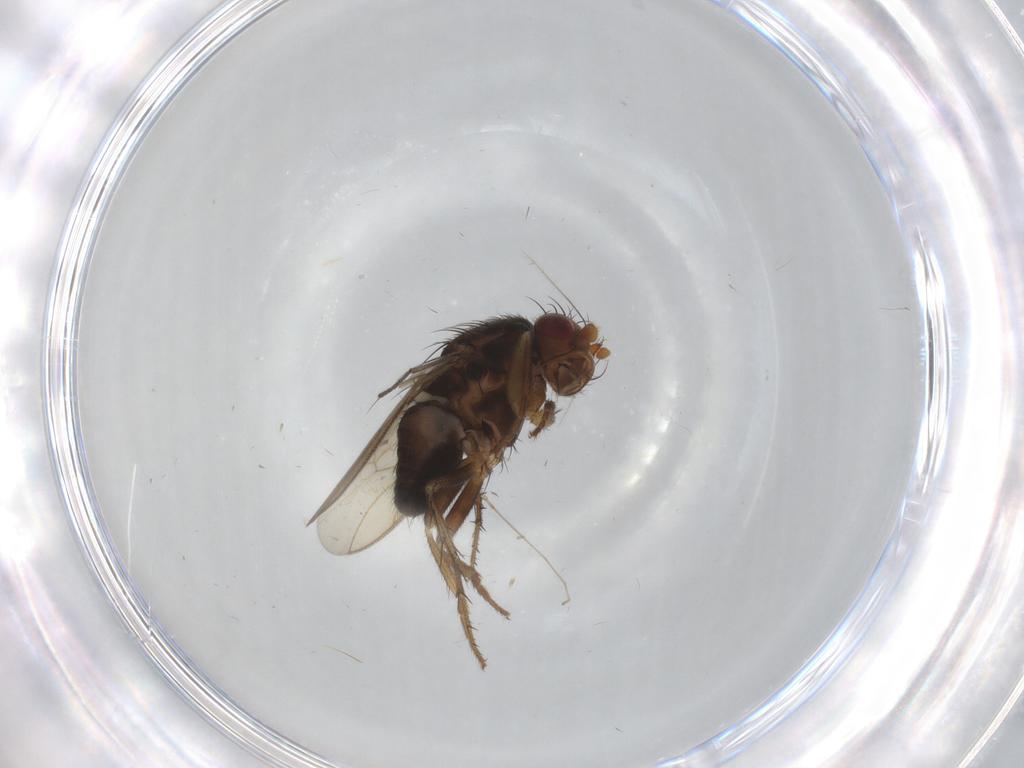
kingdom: Animalia
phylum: Arthropoda
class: Insecta
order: Diptera
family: Sphaeroceridae
